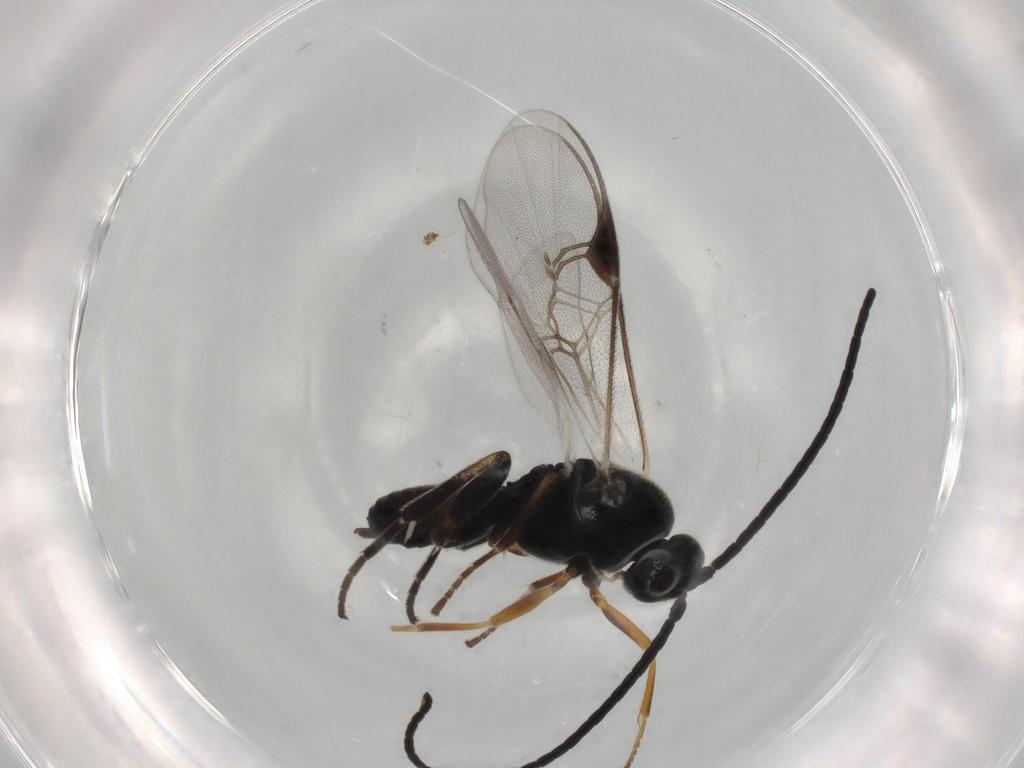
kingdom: Animalia
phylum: Arthropoda
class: Insecta
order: Hymenoptera
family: Braconidae
